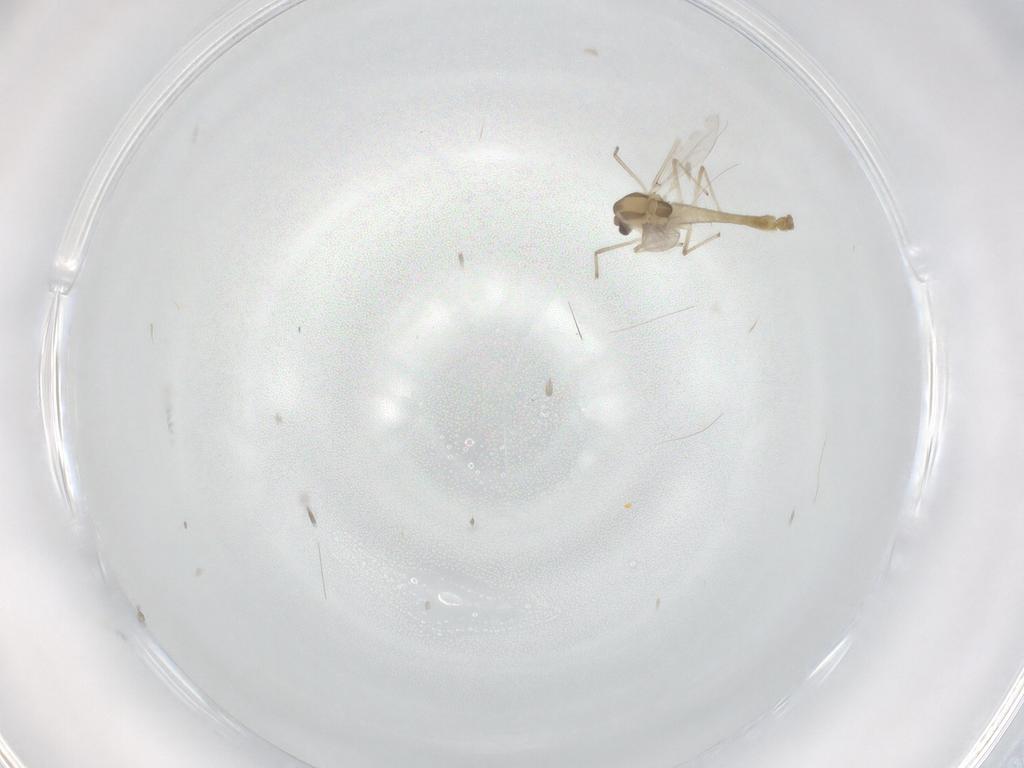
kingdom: Animalia
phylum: Arthropoda
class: Insecta
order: Diptera
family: Chironomidae
